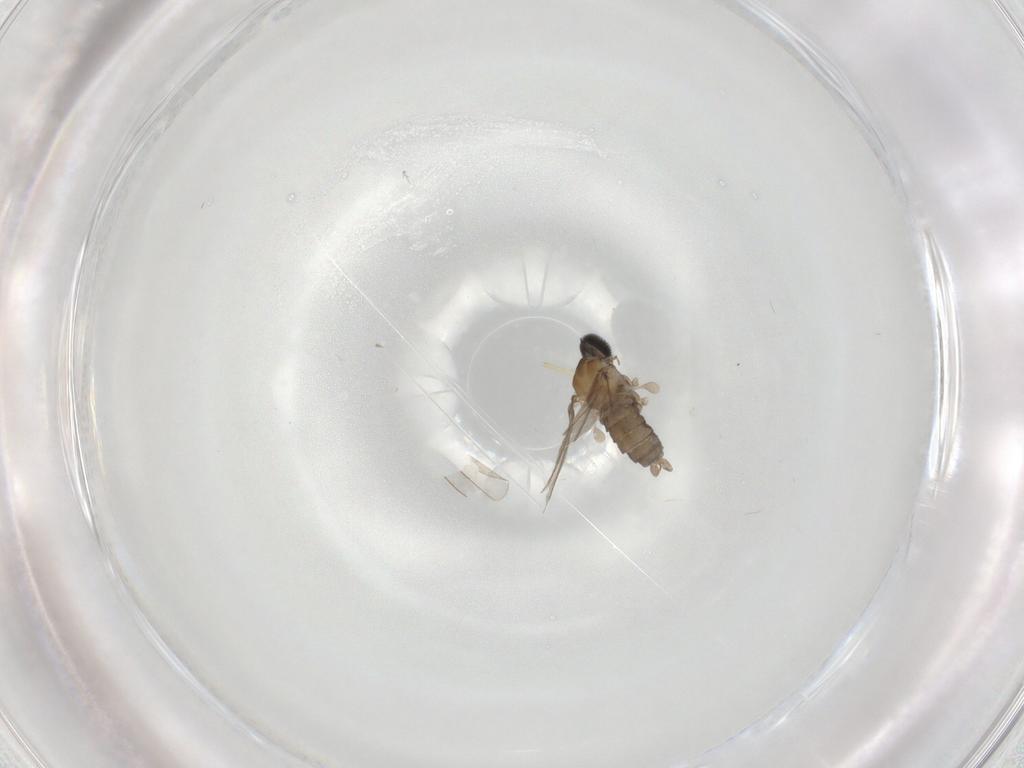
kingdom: Animalia
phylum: Arthropoda
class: Insecta
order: Diptera
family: Cecidomyiidae
